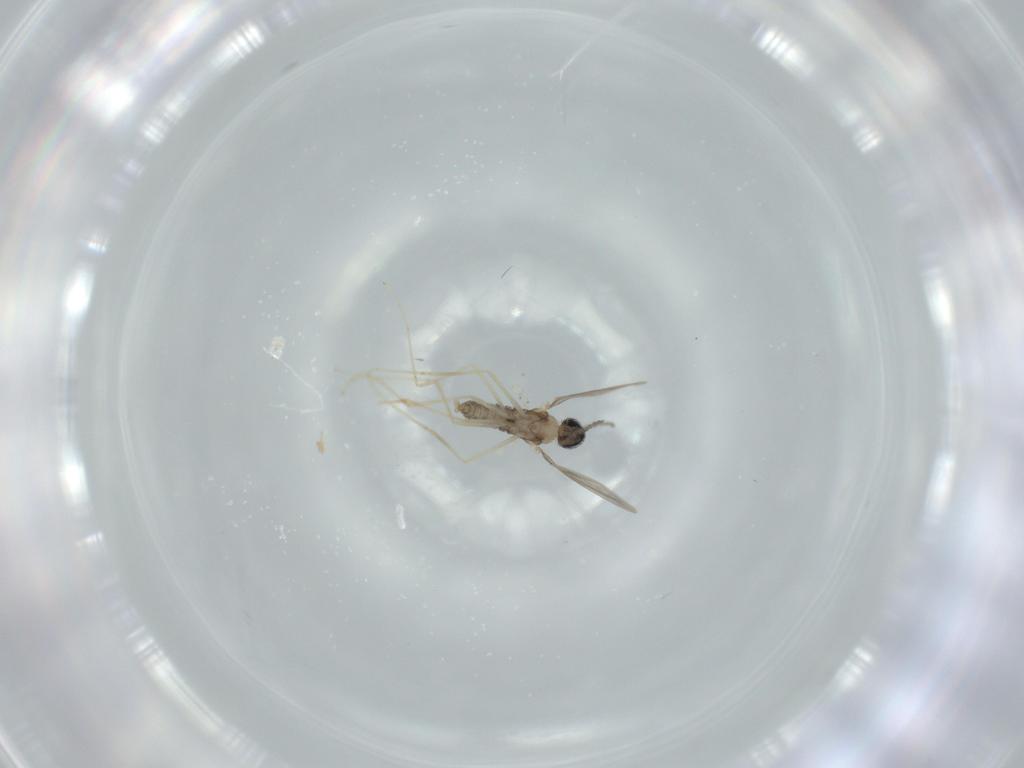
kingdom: Animalia
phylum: Arthropoda
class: Insecta
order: Diptera
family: Cecidomyiidae
